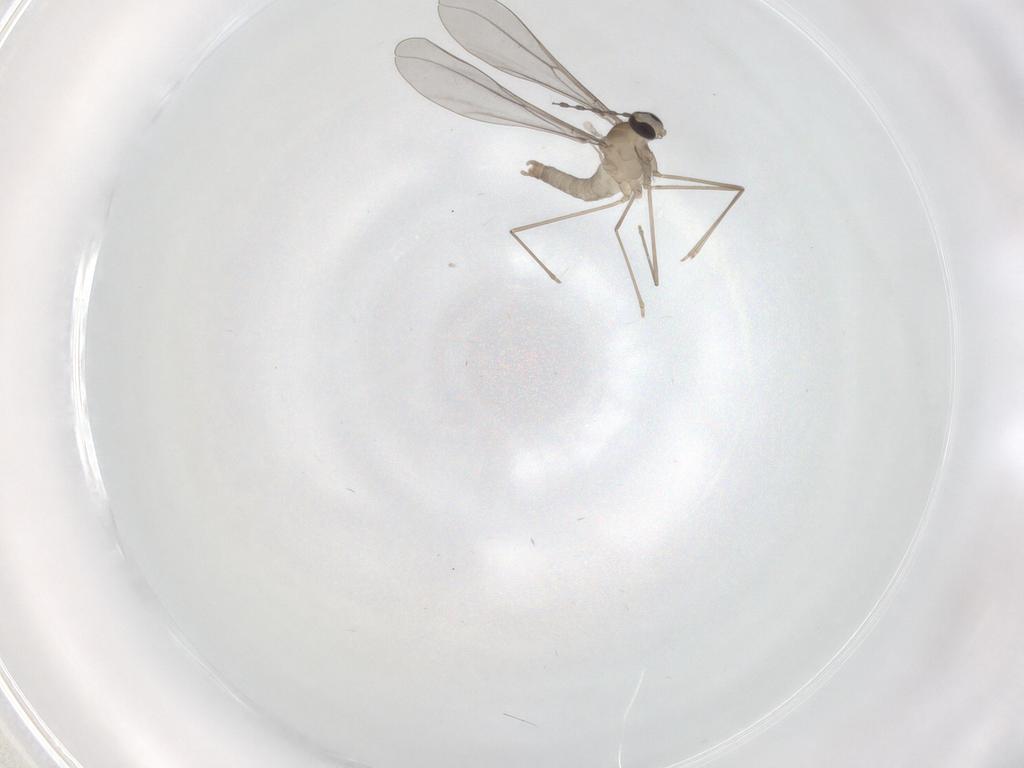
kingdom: Animalia
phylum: Arthropoda
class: Insecta
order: Diptera
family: Cecidomyiidae
